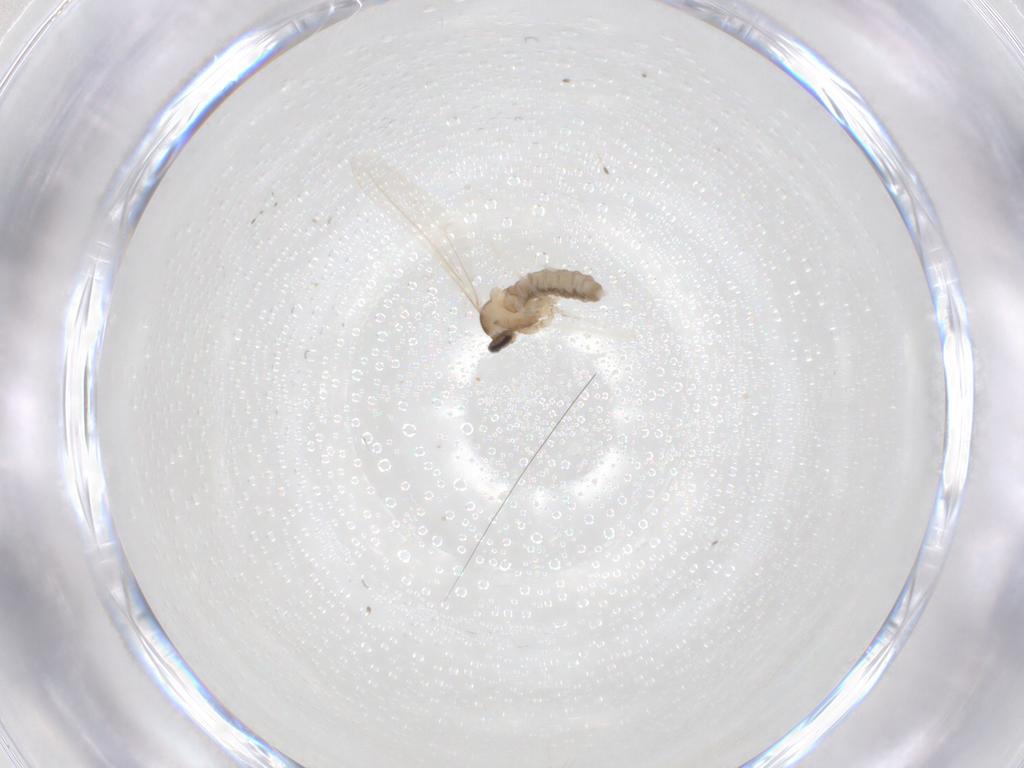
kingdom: Animalia
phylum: Arthropoda
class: Insecta
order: Diptera
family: Cecidomyiidae
